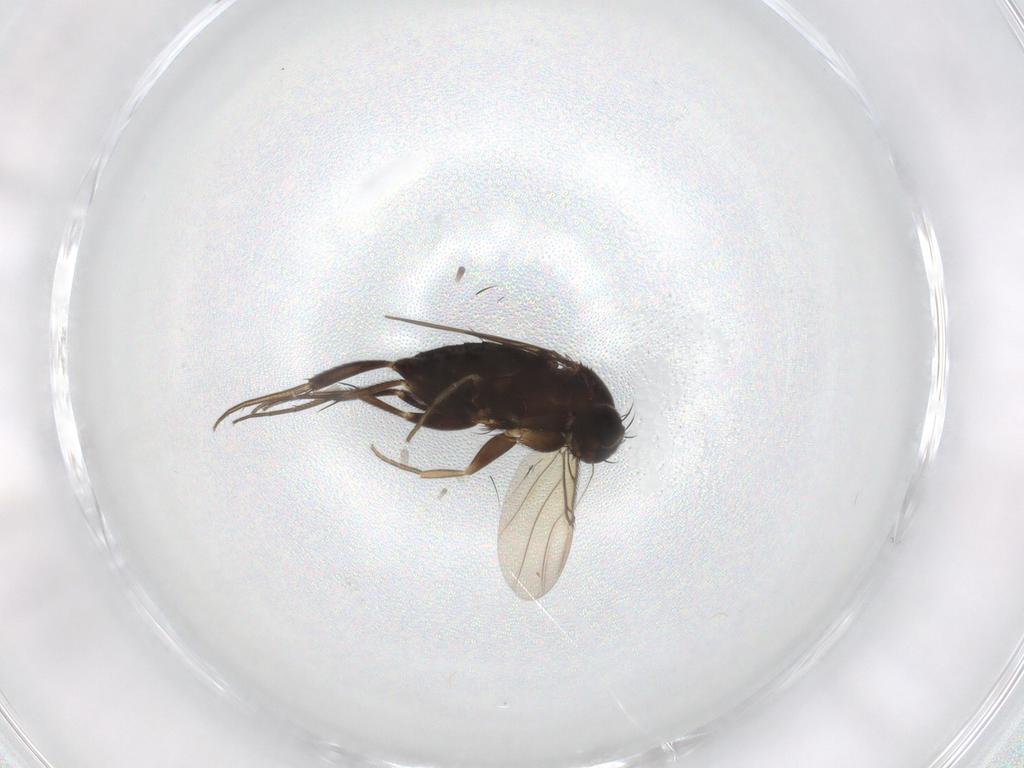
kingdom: Animalia
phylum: Arthropoda
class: Insecta
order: Diptera
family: Phoridae
